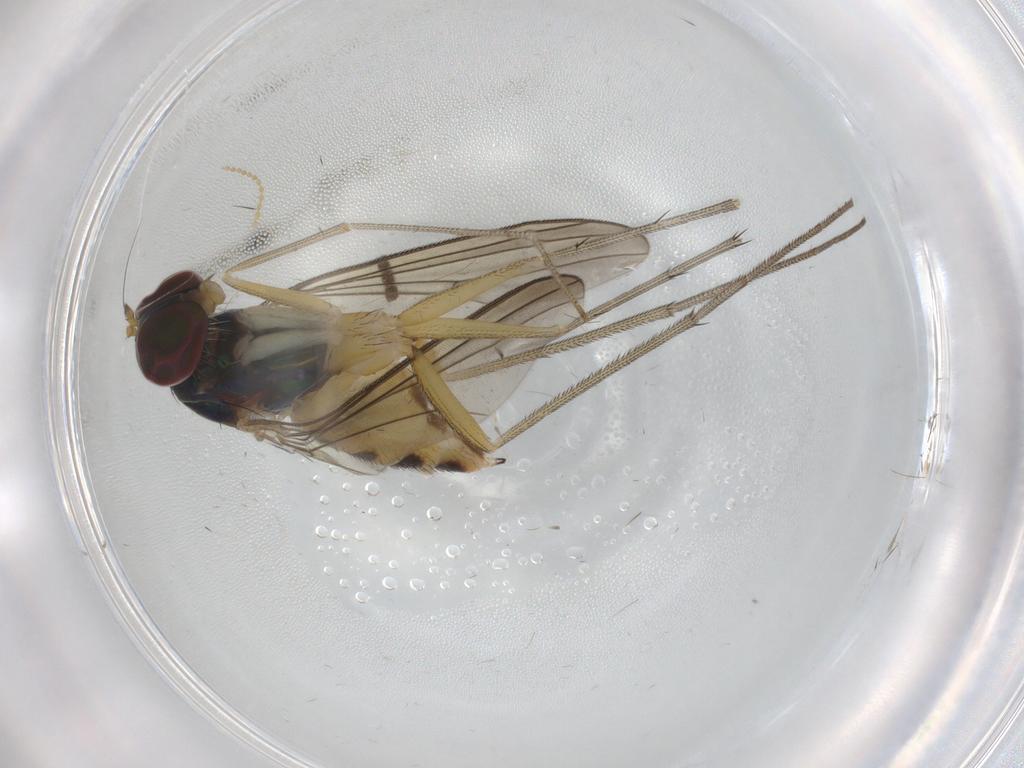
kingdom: Animalia
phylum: Arthropoda
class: Insecta
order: Diptera
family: Dolichopodidae
